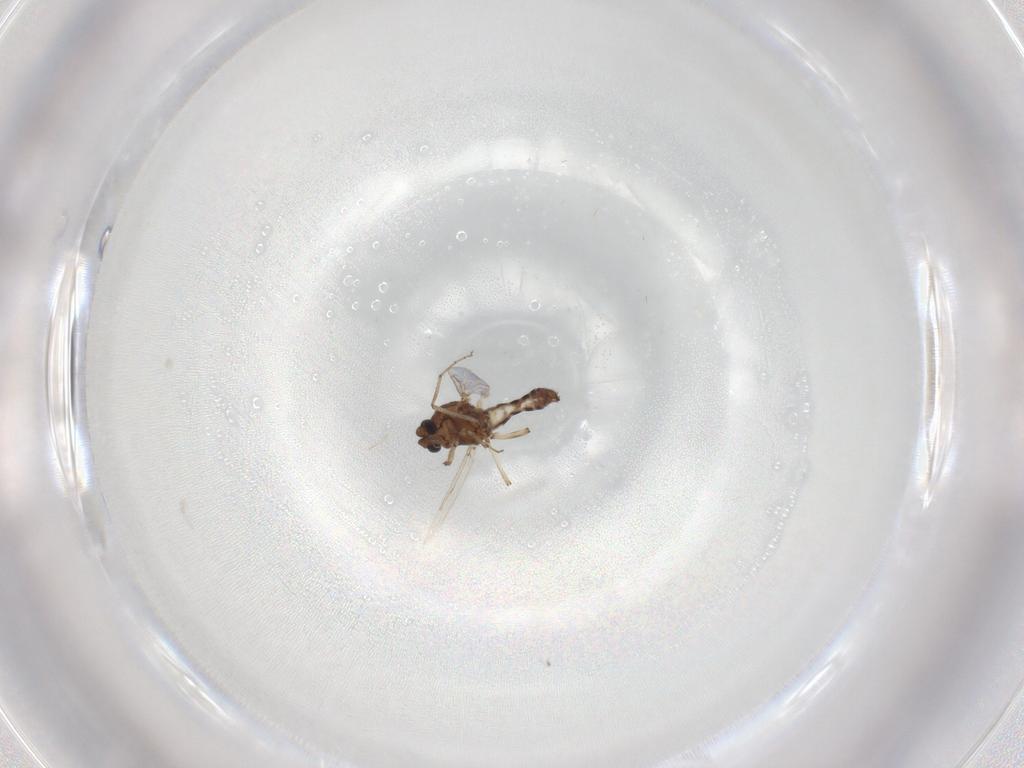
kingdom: Animalia
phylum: Arthropoda
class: Insecta
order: Diptera
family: Ceratopogonidae
